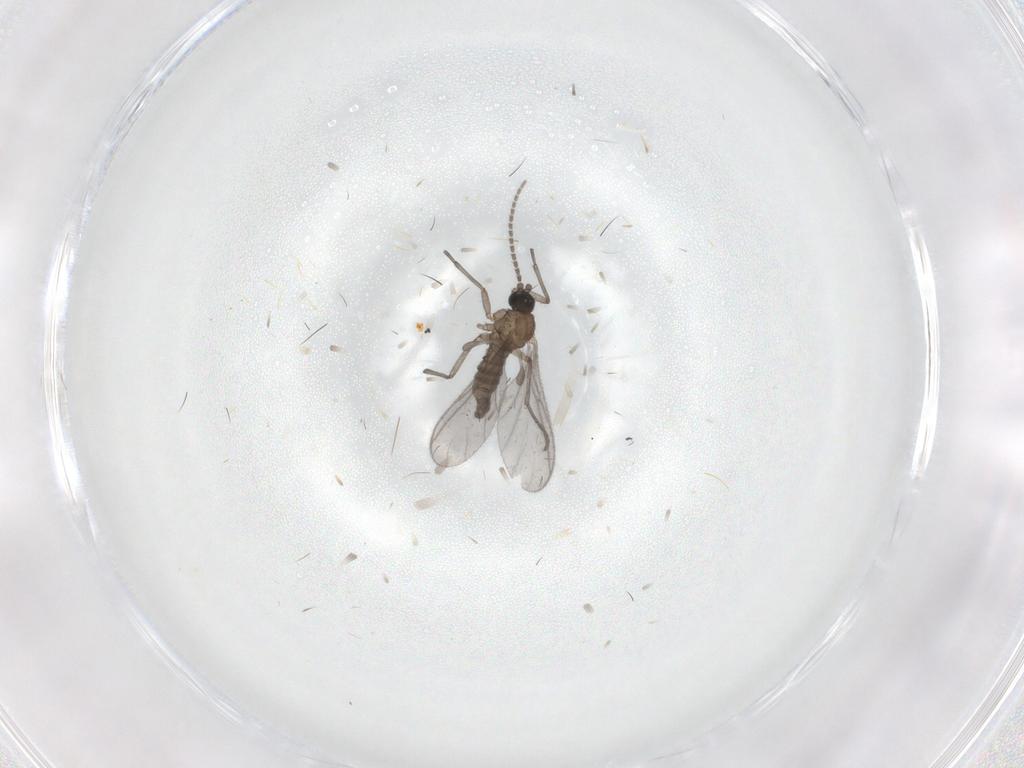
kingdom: Animalia
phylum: Arthropoda
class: Insecta
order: Diptera
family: Sciaridae
